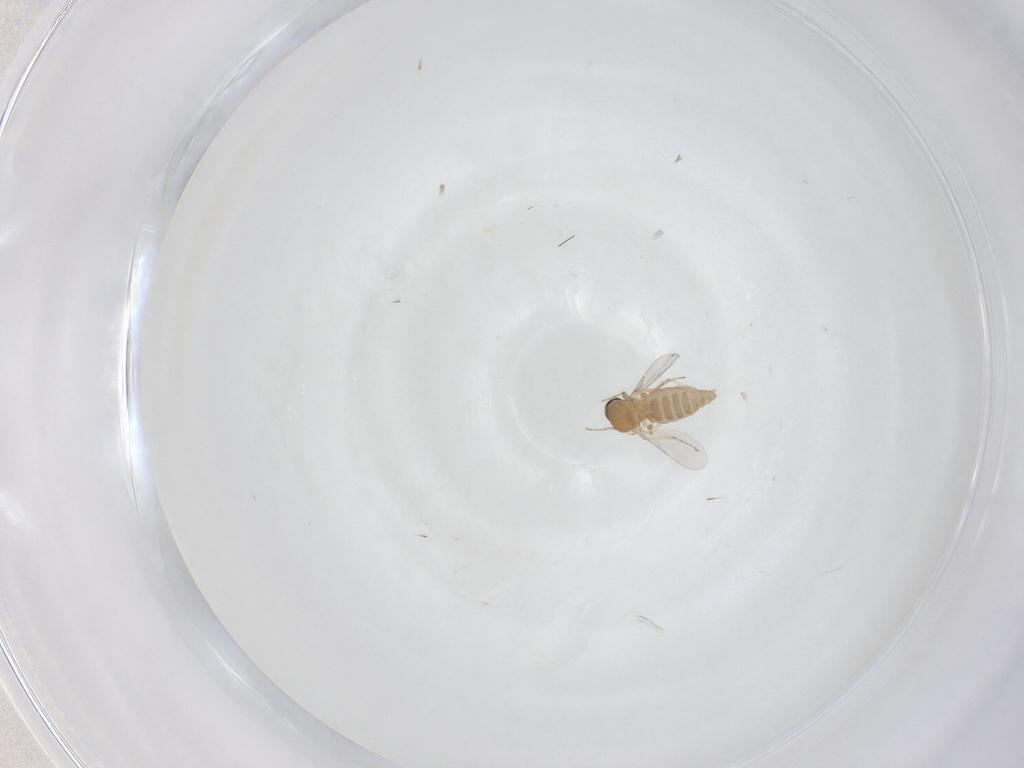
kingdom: Animalia
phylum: Arthropoda
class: Insecta
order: Diptera
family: Ceratopogonidae
